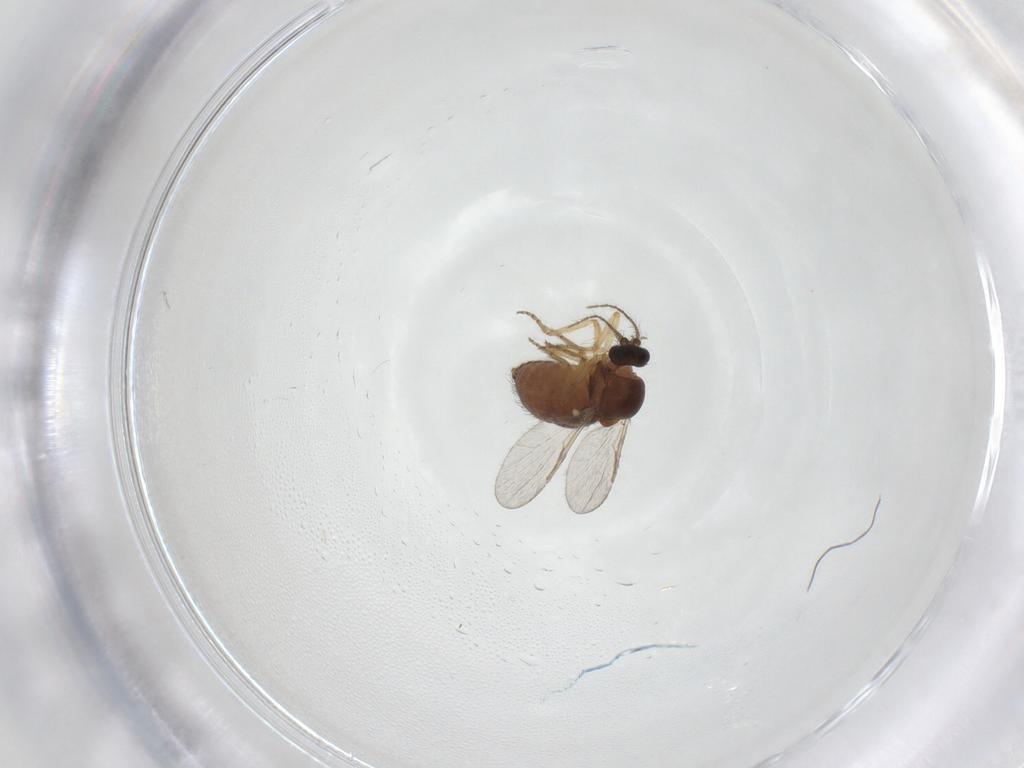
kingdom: Animalia
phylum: Arthropoda
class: Insecta
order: Diptera
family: Ceratopogonidae
